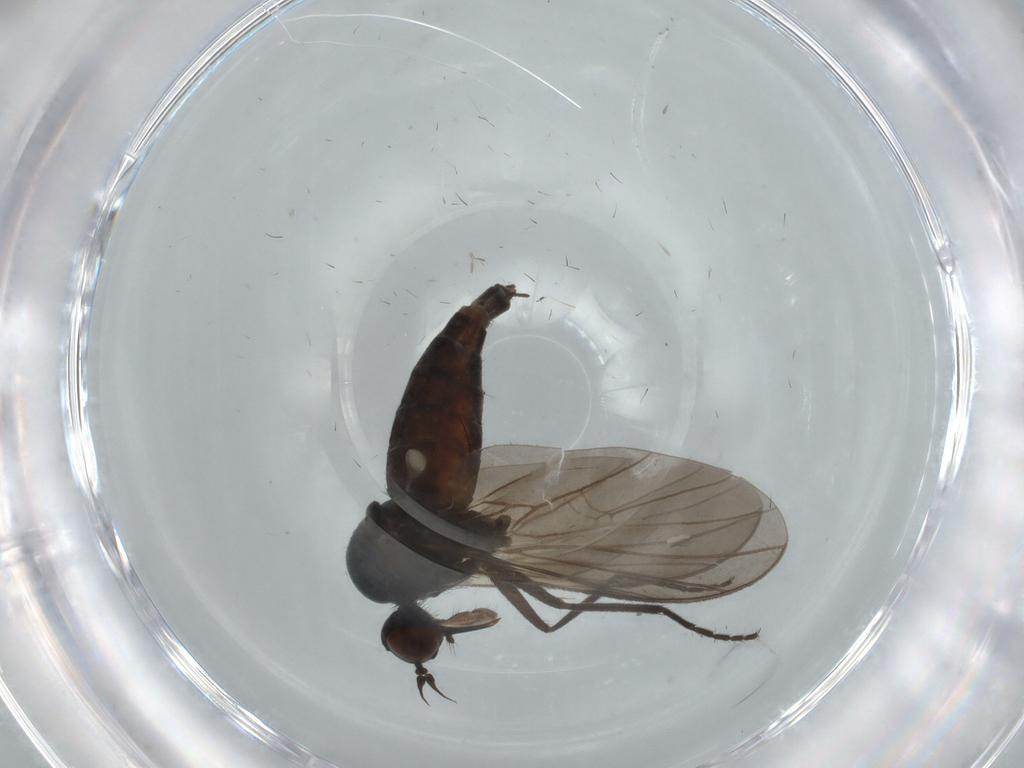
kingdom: Animalia
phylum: Arthropoda
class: Insecta
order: Diptera
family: Empididae
